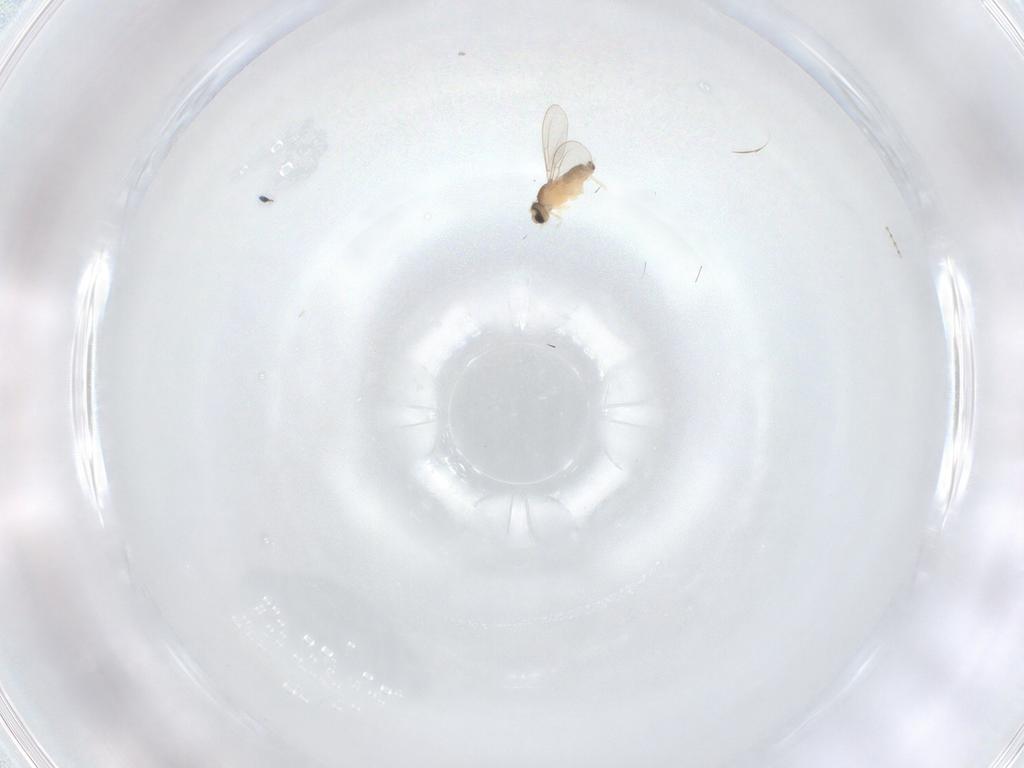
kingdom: Animalia
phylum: Arthropoda
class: Insecta
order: Diptera
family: Cecidomyiidae
